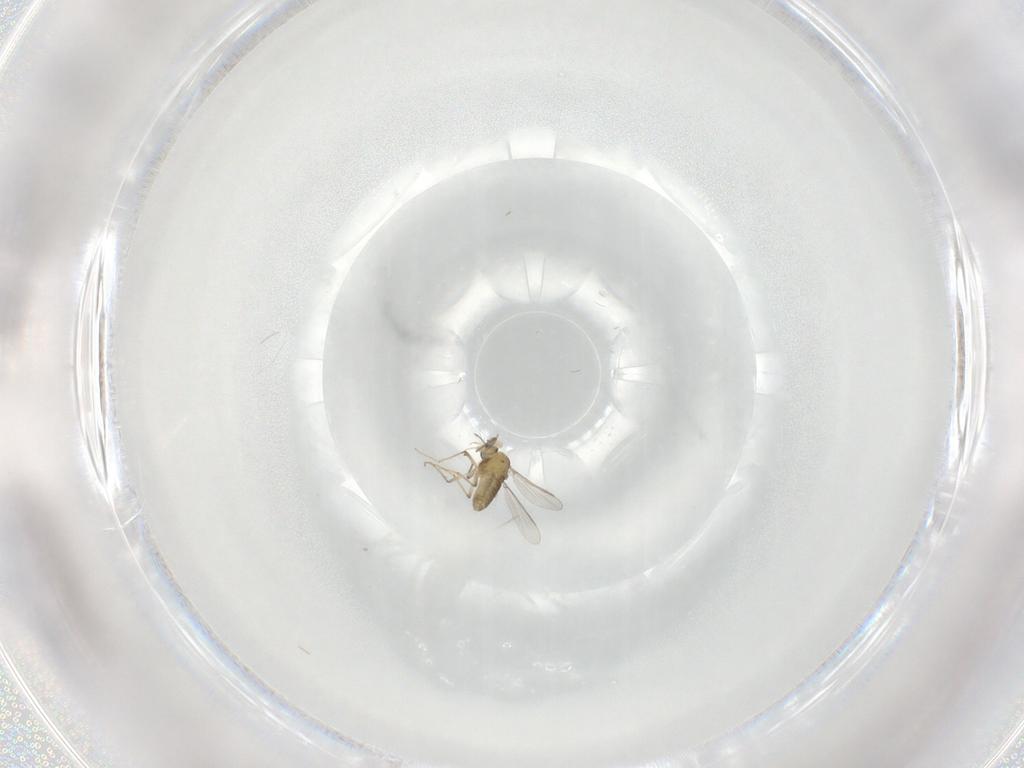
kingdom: Animalia
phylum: Arthropoda
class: Insecta
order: Diptera
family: Chironomidae
